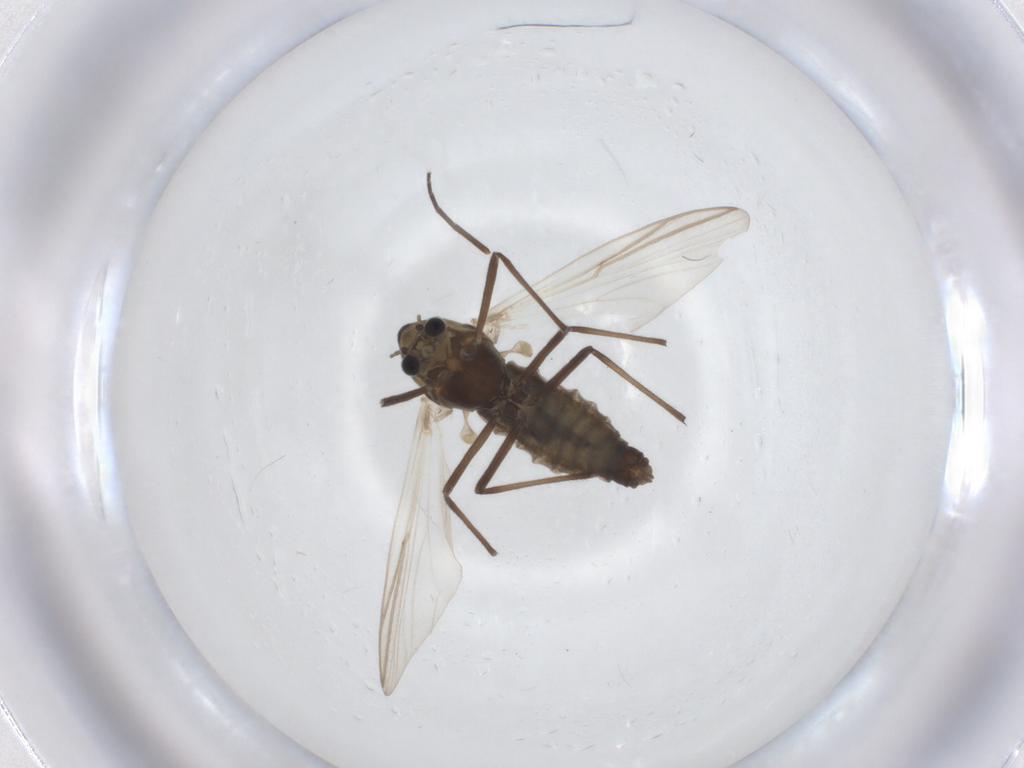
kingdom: Animalia
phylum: Arthropoda
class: Insecta
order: Diptera
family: Chironomidae
